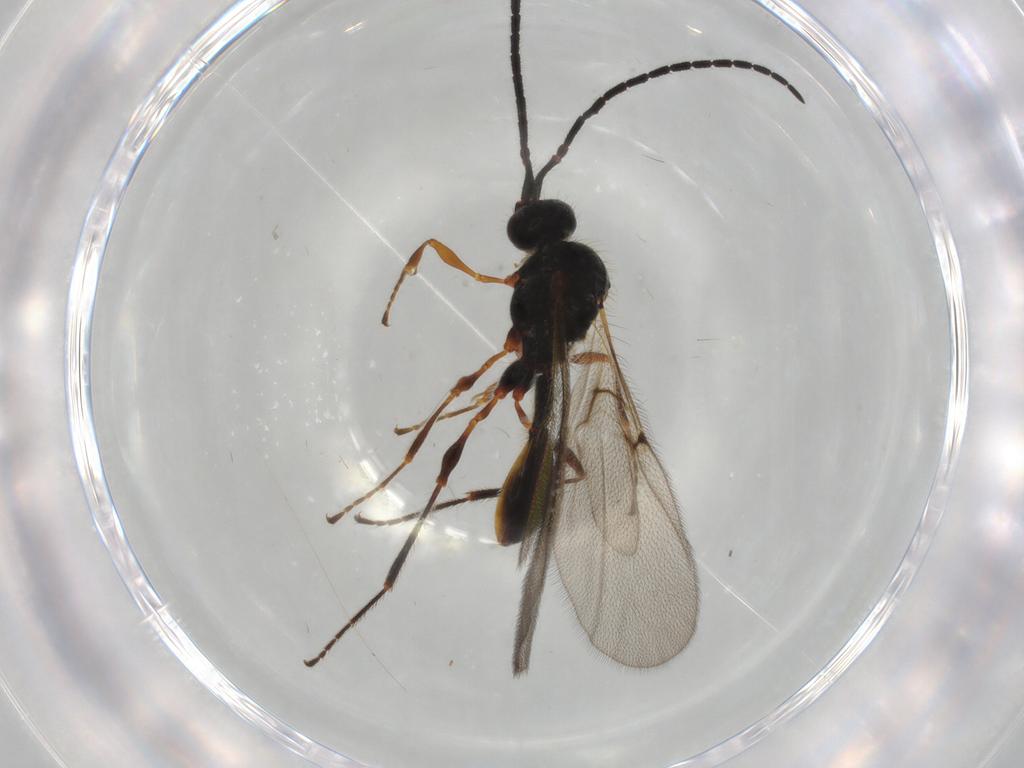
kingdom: Animalia
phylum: Arthropoda
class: Insecta
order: Hymenoptera
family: Diapriidae
